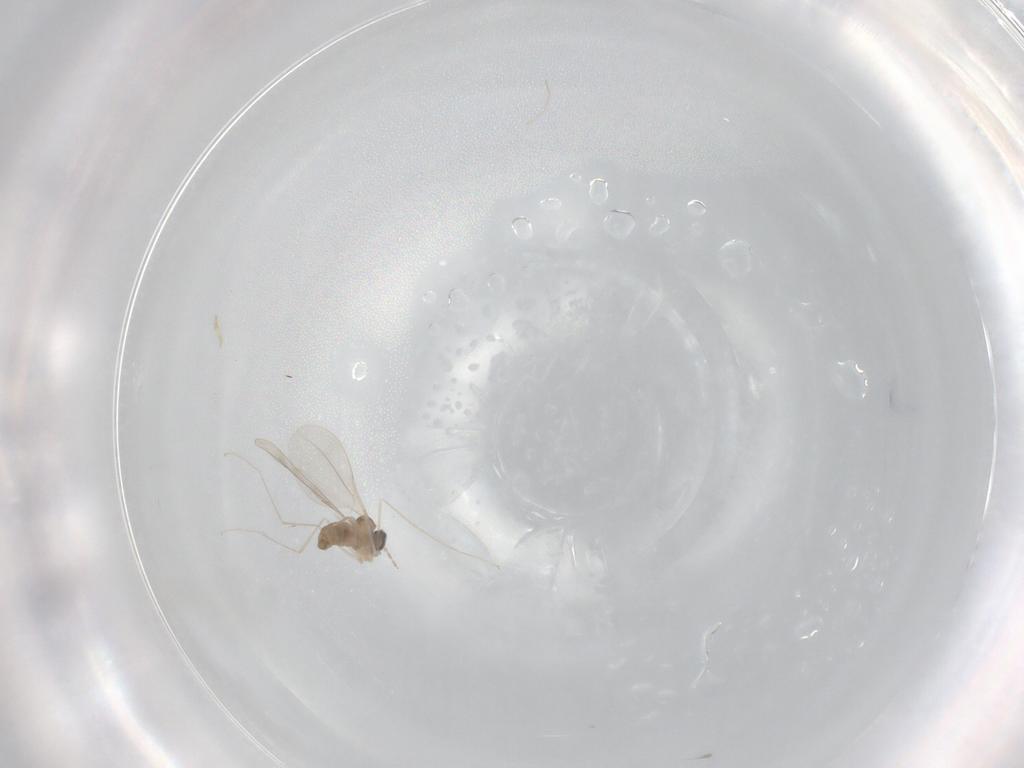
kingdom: Animalia
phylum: Arthropoda
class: Insecta
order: Diptera
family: Cecidomyiidae
